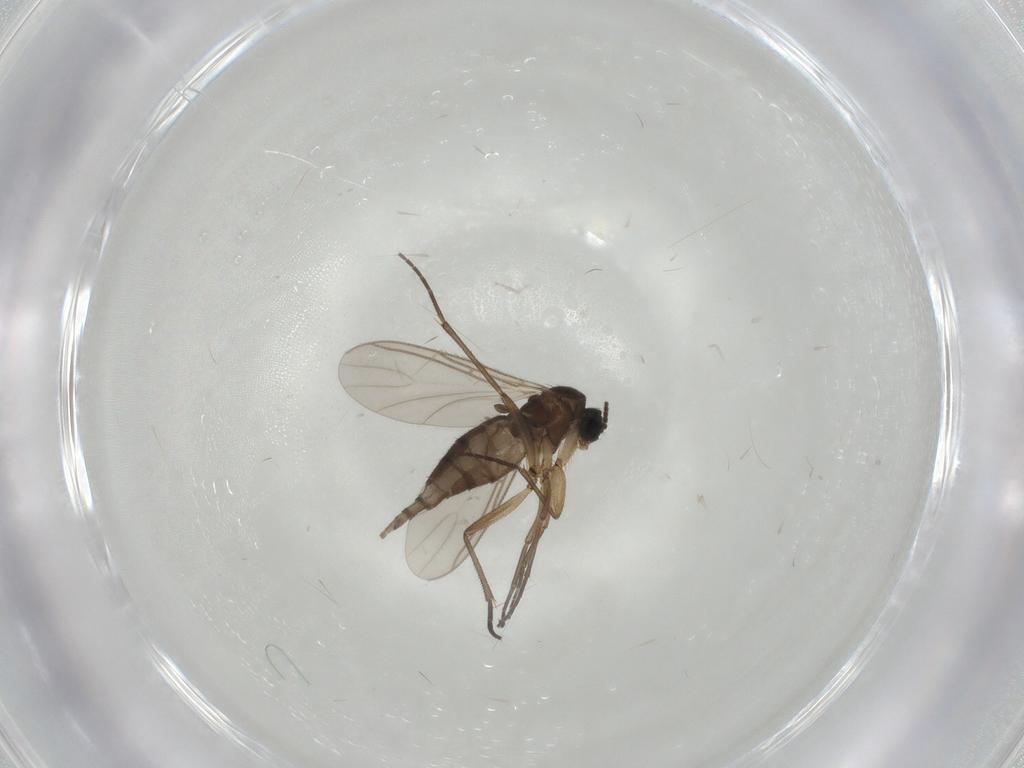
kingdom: Animalia
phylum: Arthropoda
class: Insecta
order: Diptera
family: Sciaridae
